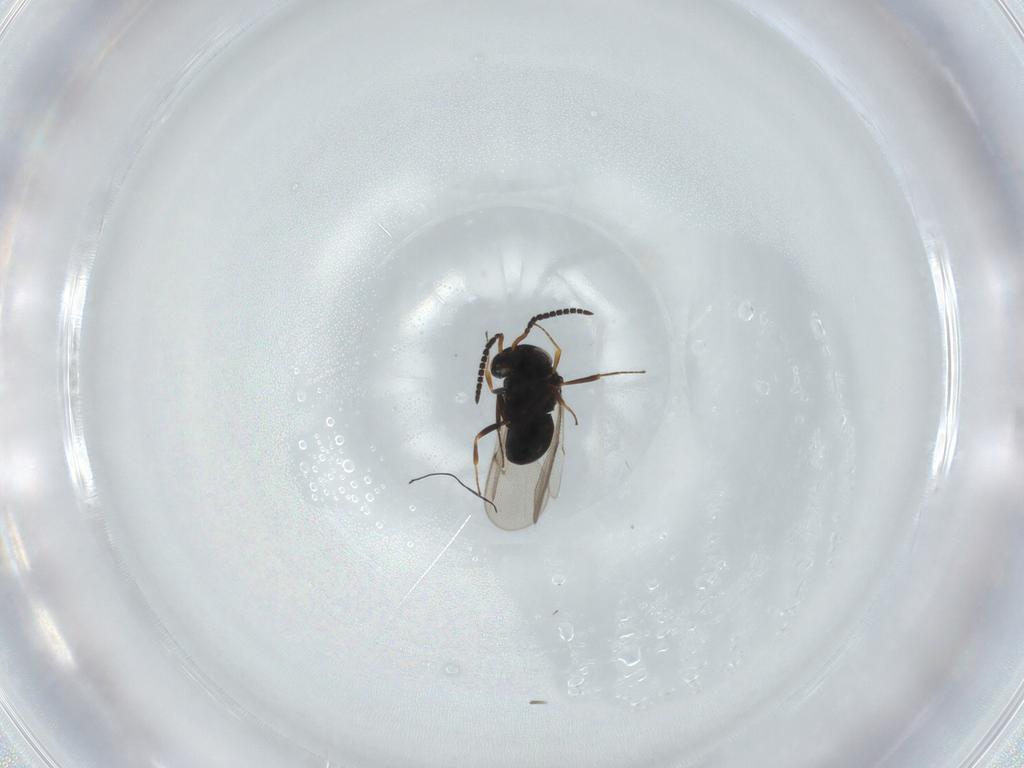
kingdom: Animalia
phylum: Arthropoda
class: Insecta
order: Hymenoptera
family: Scelionidae
